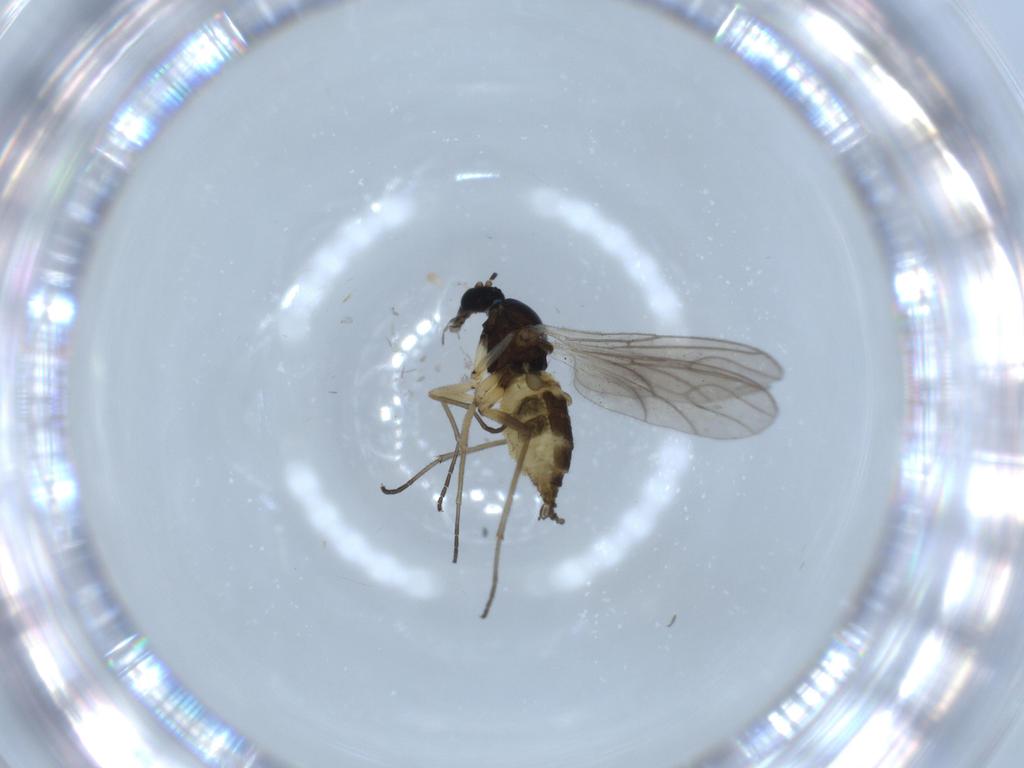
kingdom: Animalia
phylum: Arthropoda
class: Insecta
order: Diptera
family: Sciaridae
